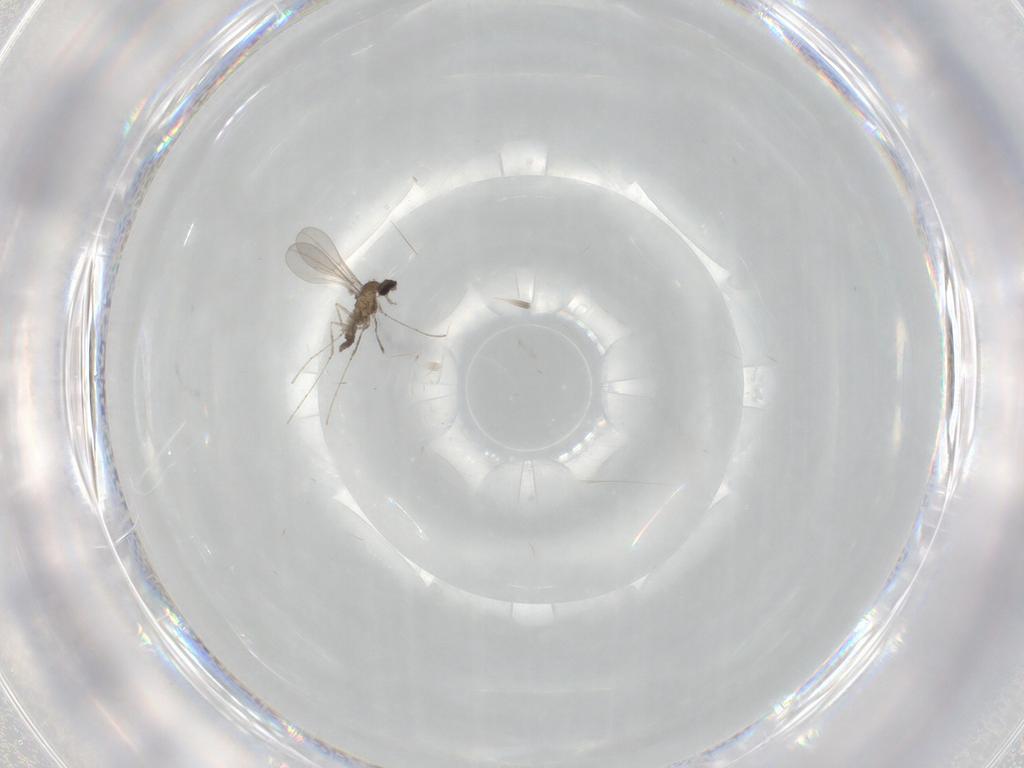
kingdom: Animalia
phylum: Arthropoda
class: Insecta
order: Diptera
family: Cecidomyiidae
